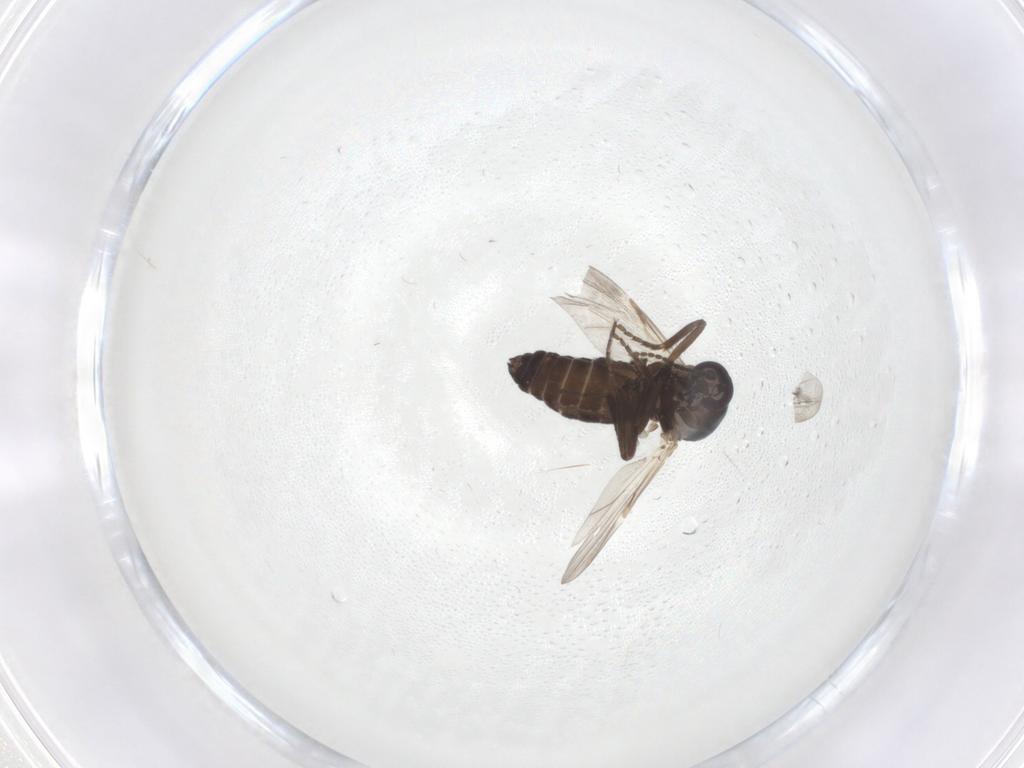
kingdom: Animalia
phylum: Arthropoda
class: Insecta
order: Diptera
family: Ceratopogonidae
